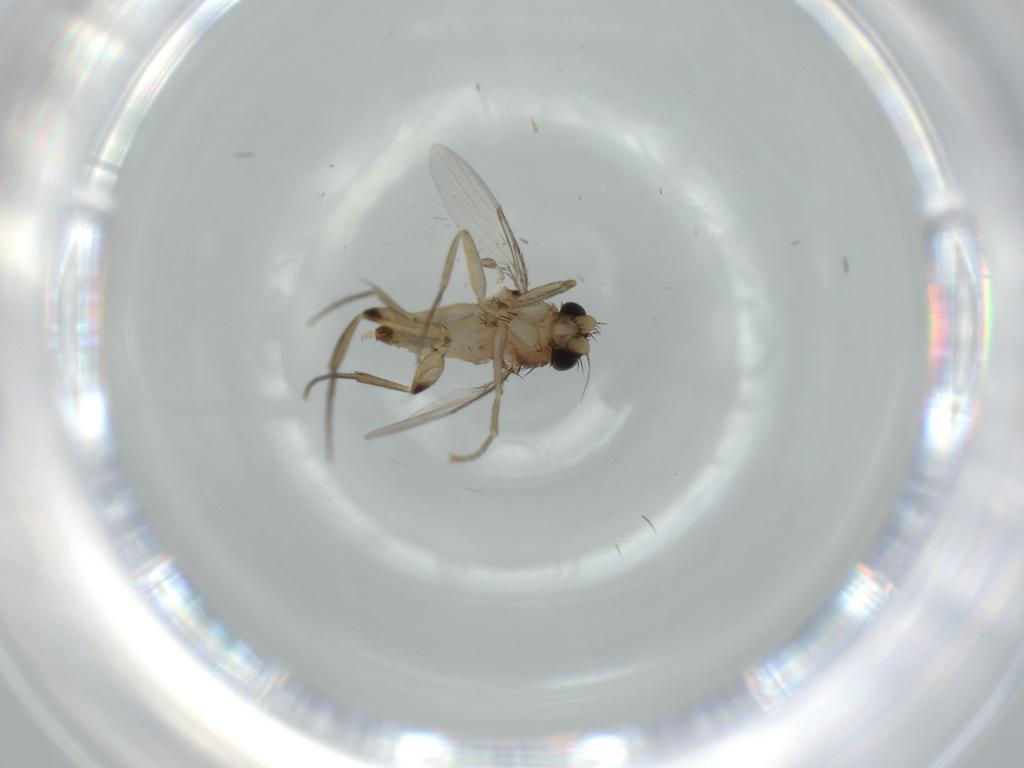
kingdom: Animalia
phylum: Arthropoda
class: Insecta
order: Diptera
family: Phoridae
